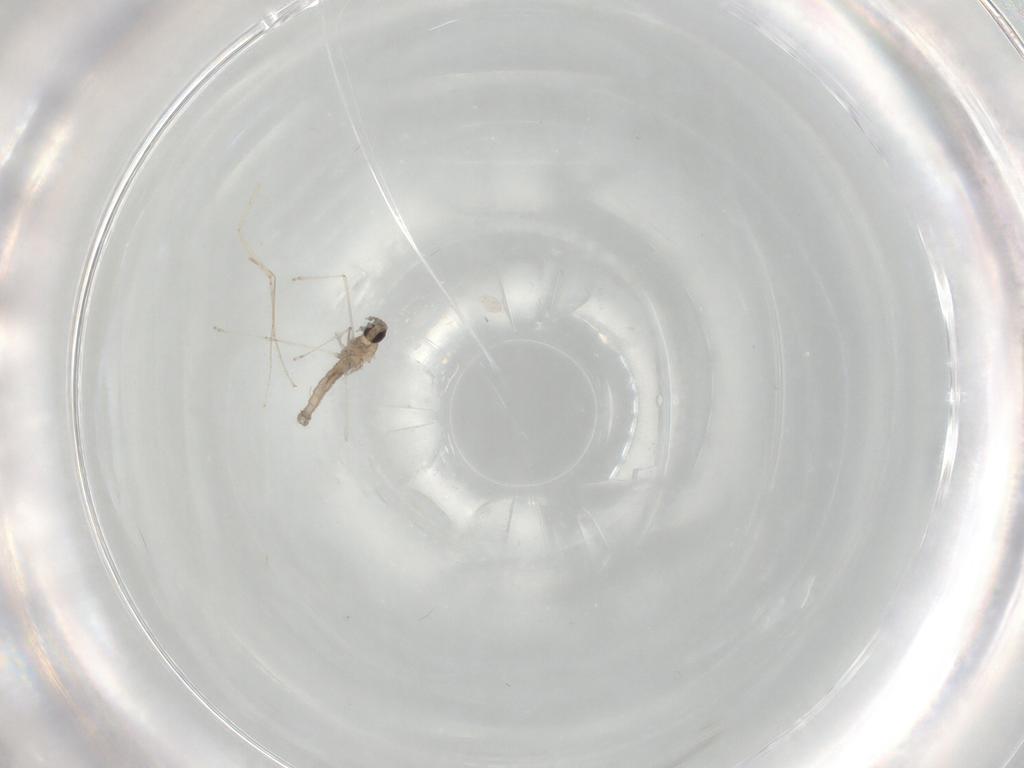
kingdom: Animalia
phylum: Arthropoda
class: Insecta
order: Diptera
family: Cecidomyiidae
